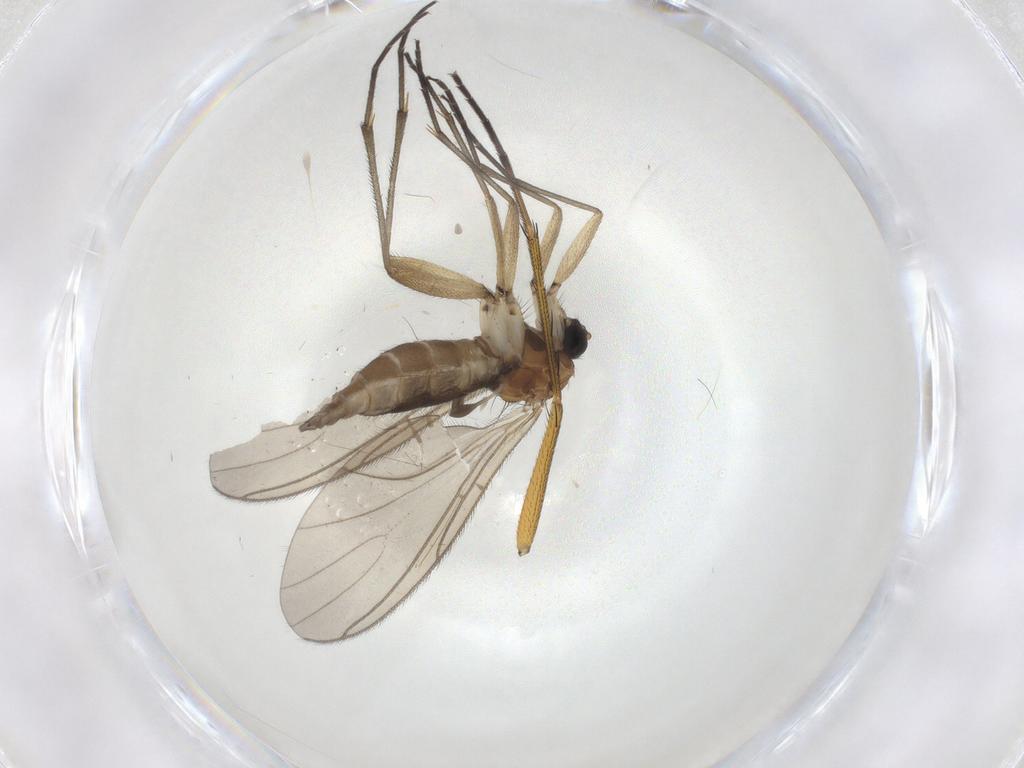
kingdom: Animalia
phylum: Arthropoda
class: Insecta
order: Diptera
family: Sciaridae
